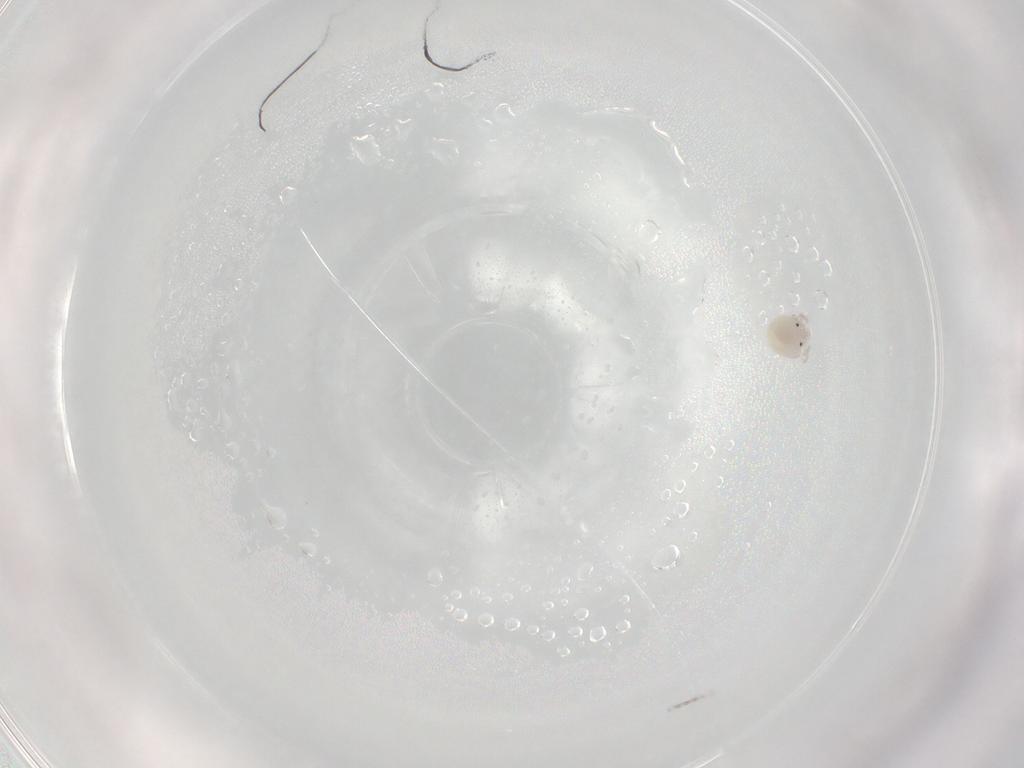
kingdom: Animalia
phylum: Arthropoda
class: Arachnida
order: Trombidiformes
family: Lebertiidae
